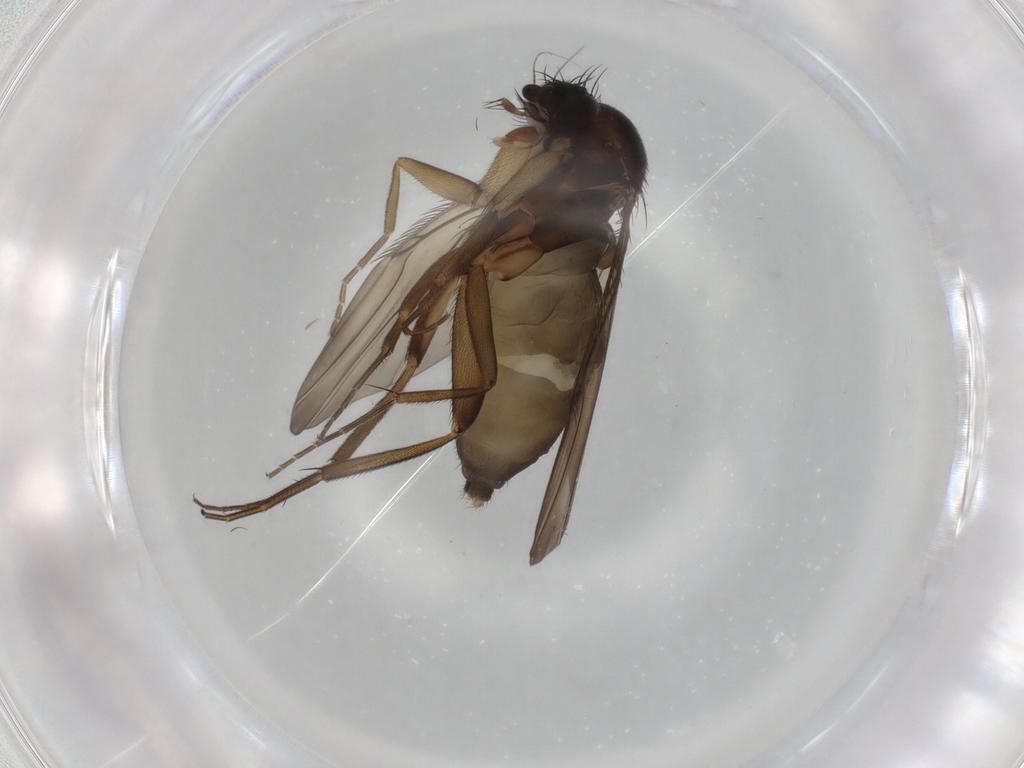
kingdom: Animalia
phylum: Arthropoda
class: Insecta
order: Diptera
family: Phoridae
